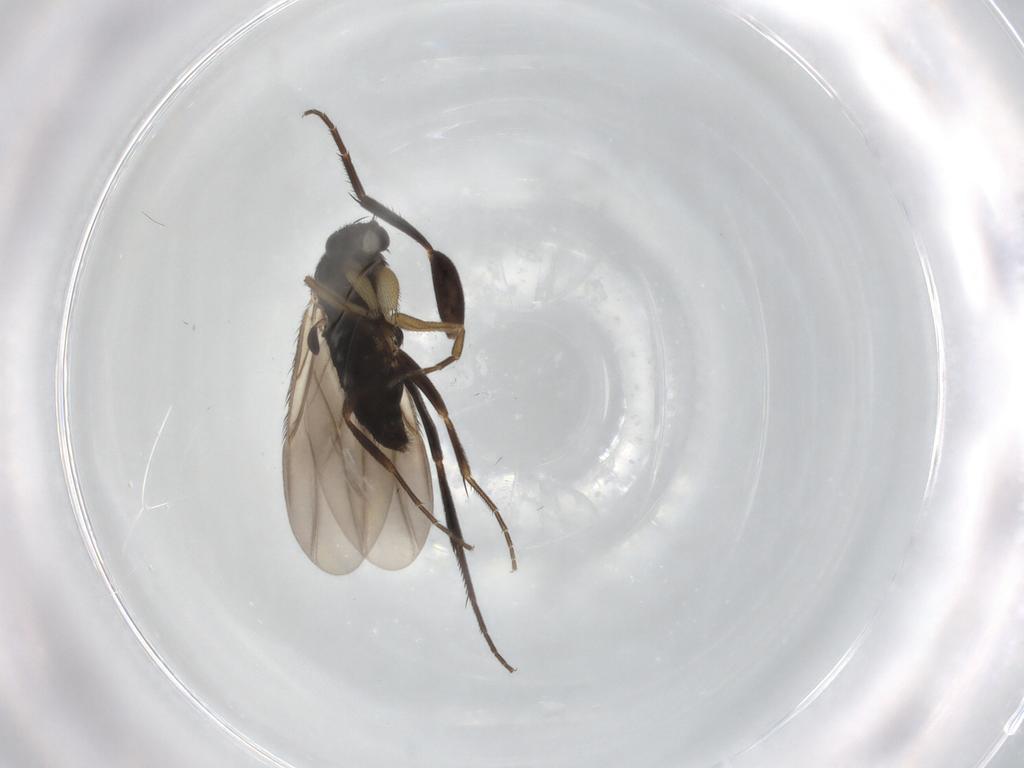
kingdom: Animalia
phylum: Arthropoda
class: Insecta
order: Diptera
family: Phoridae
